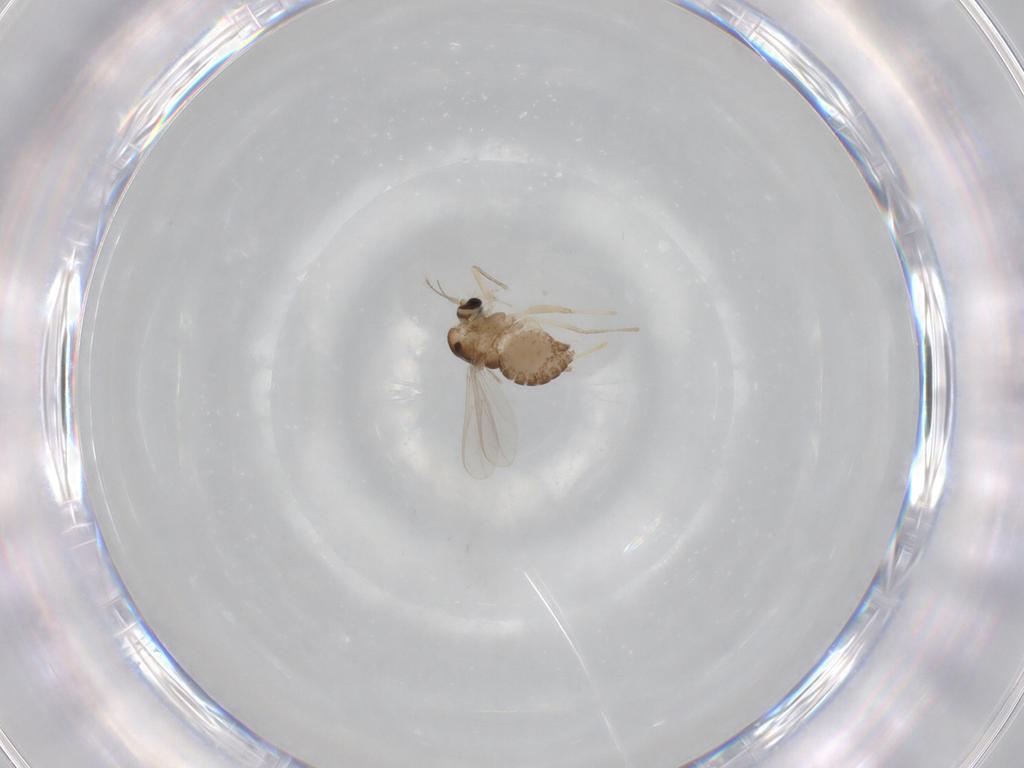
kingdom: Animalia
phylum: Arthropoda
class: Insecta
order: Diptera
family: Chironomidae
